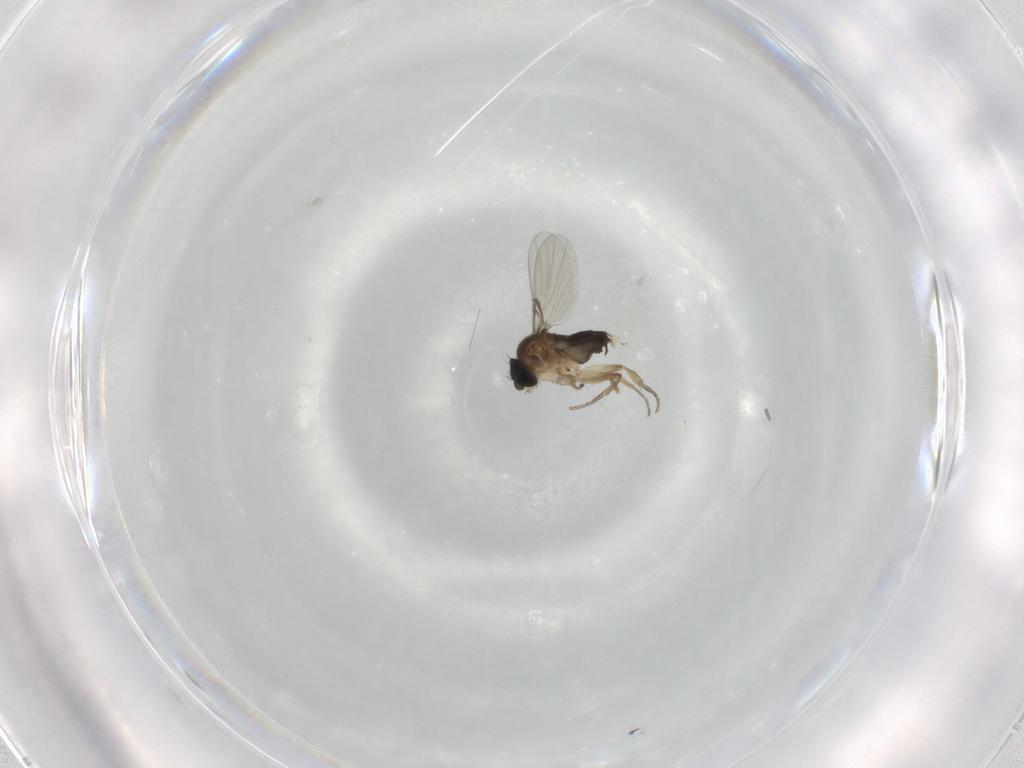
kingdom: Animalia
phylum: Arthropoda
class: Insecta
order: Diptera
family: Phoridae
